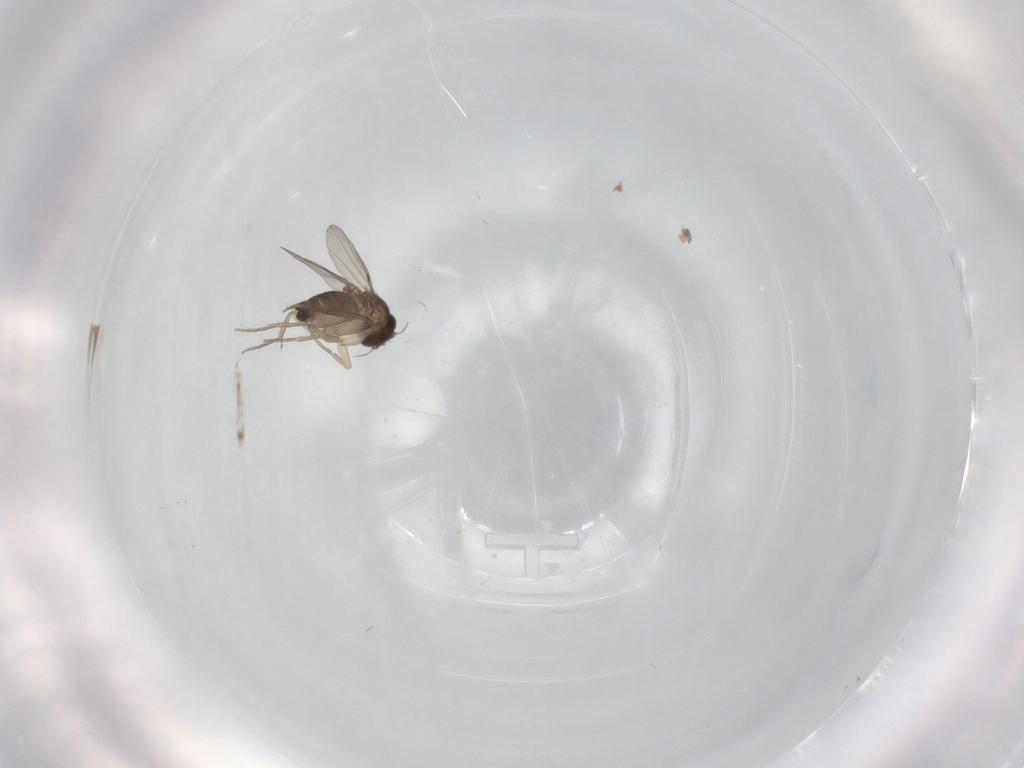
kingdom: Animalia
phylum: Arthropoda
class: Insecta
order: Diptera
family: Phoridae
